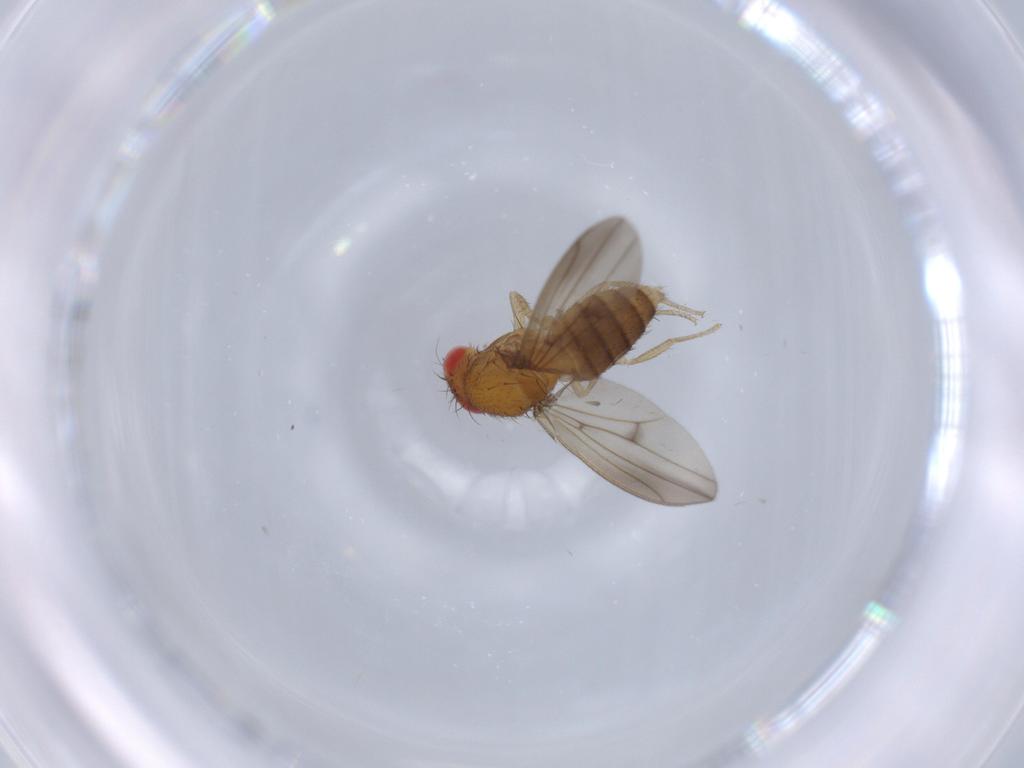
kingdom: Animalia
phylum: Arthropoda
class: Insecta
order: Diptera
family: Drosophilidae
